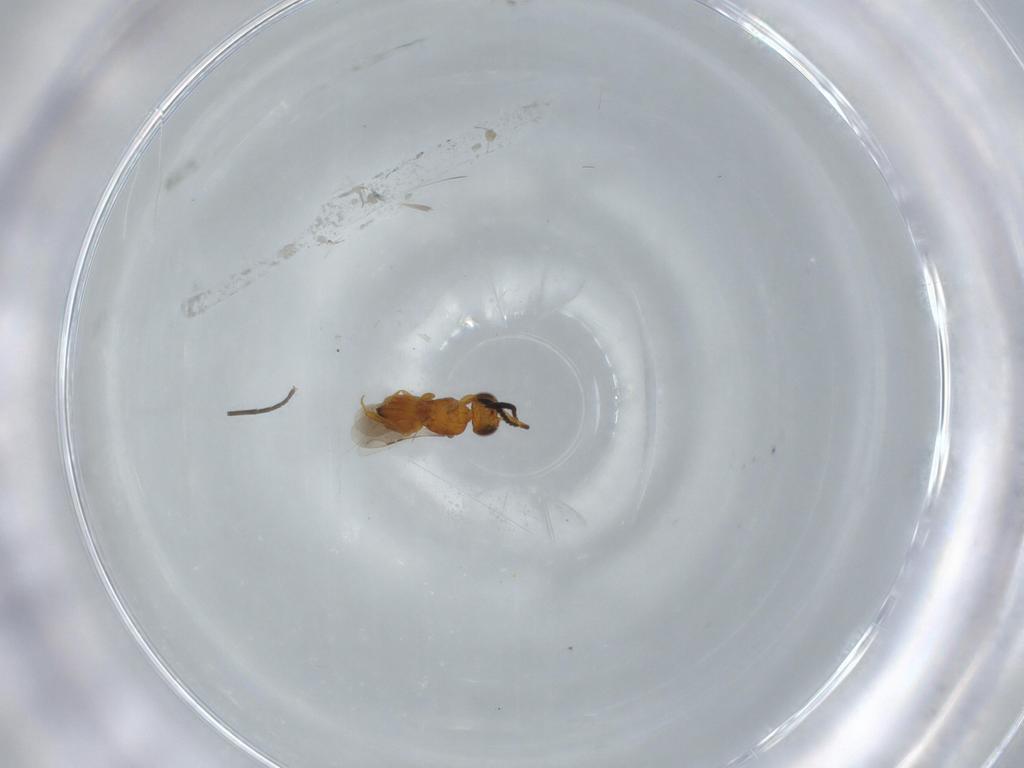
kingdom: Animalia
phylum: Arthropoda
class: Insecta
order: Hymenoptera
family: Ceraphronidae
